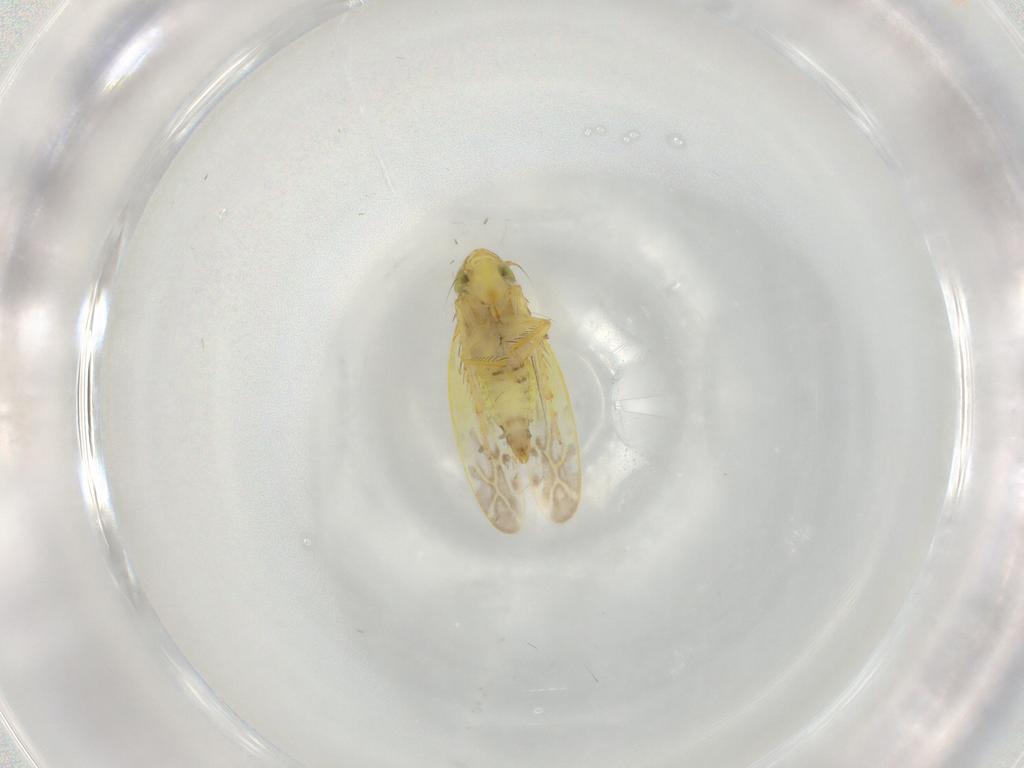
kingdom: Animalia
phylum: Arthropoda
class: Insecta
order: Hemiptera
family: Cicadellidae
